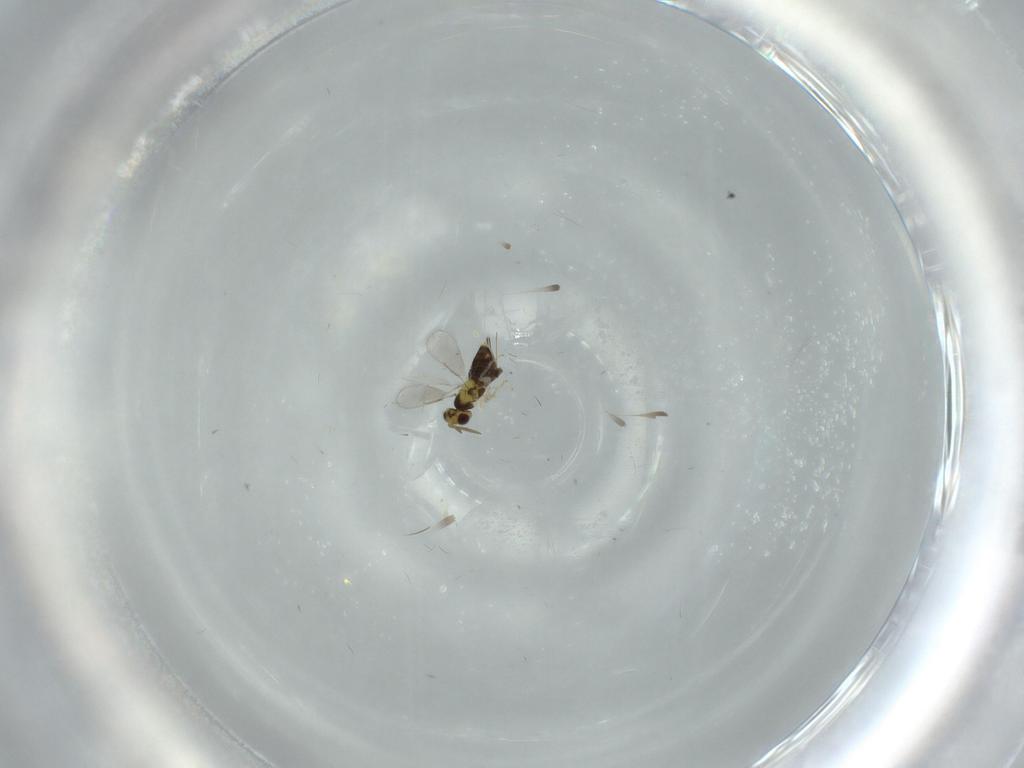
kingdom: Animalia
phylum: Arthropoda
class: Insecta
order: Hymenoptera
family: Aphelinidae
